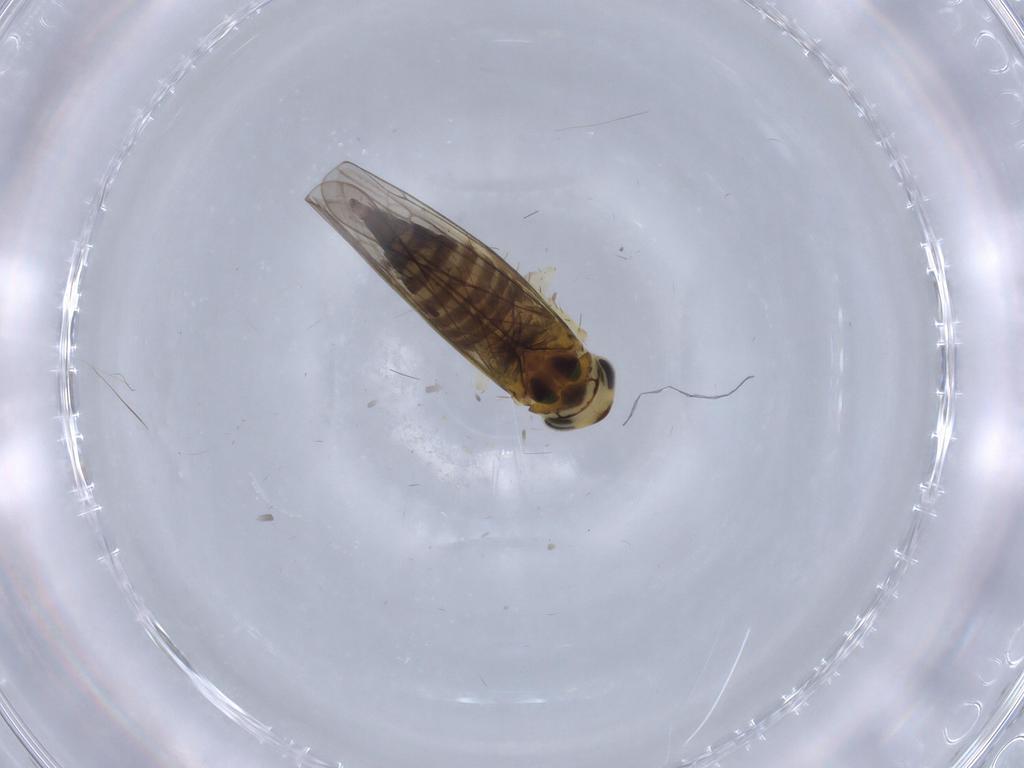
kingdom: Animalia
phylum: Arthropoda
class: Insecta
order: Hemiptera
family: Cicadellidae
